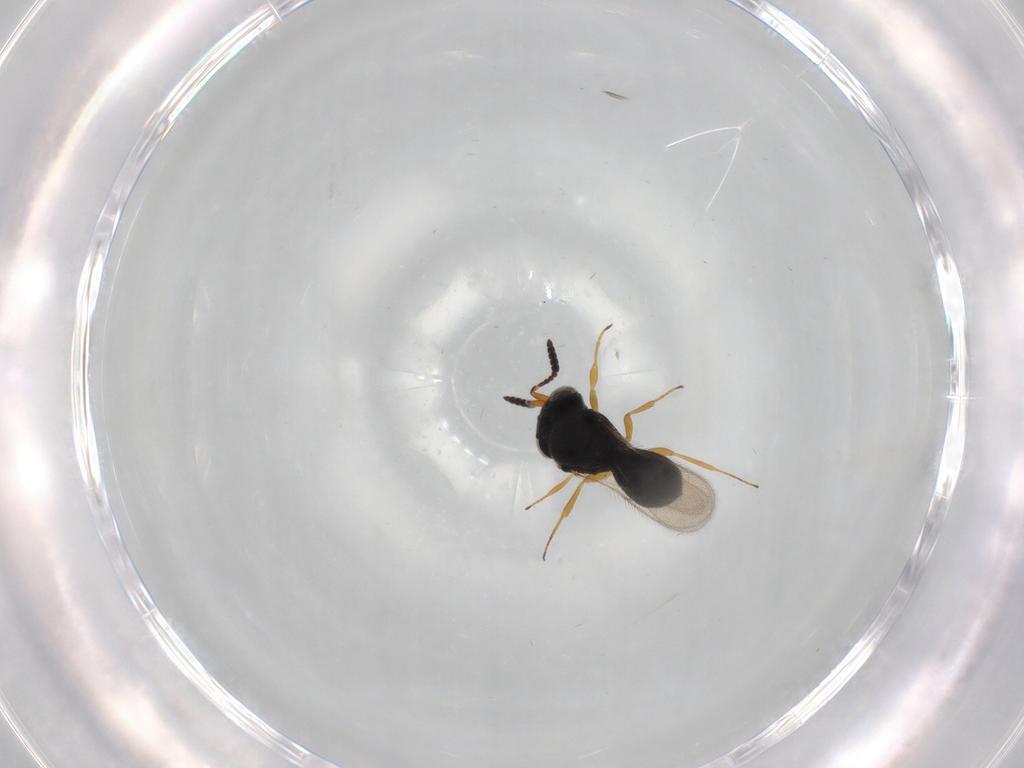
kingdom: Animalia
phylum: Arthropoda
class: Insecta
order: Hymenoptera
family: Scelionidae
